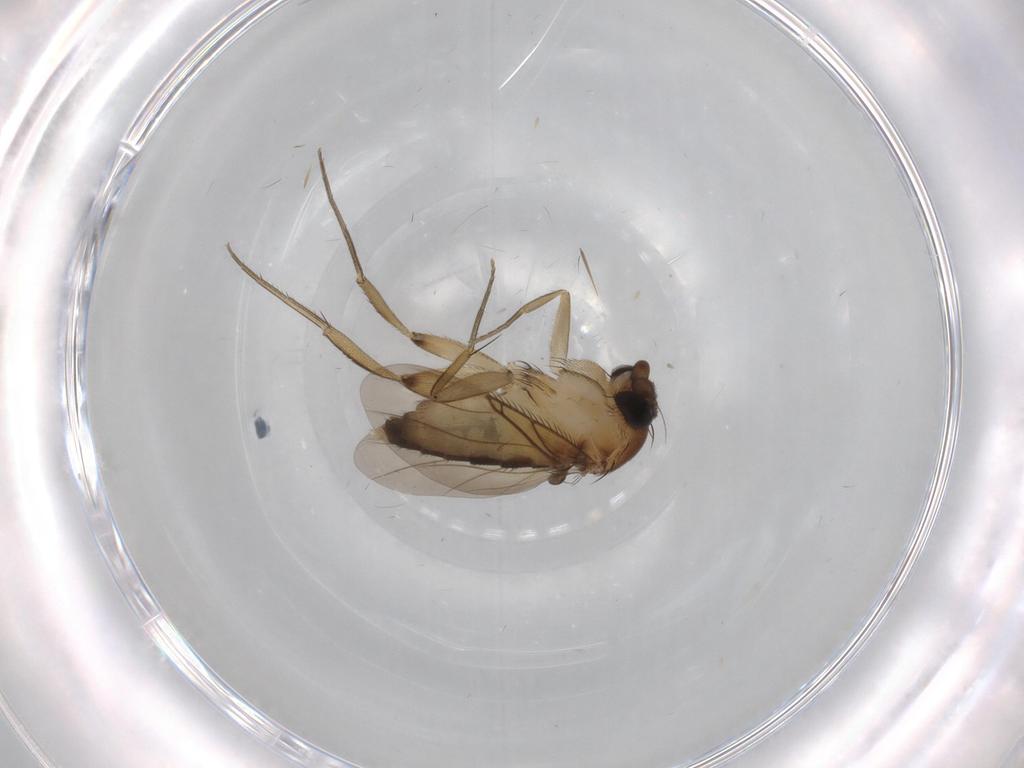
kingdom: Animalia
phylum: Arthropoda
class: Insecta
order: Diptera
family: Phoridae
